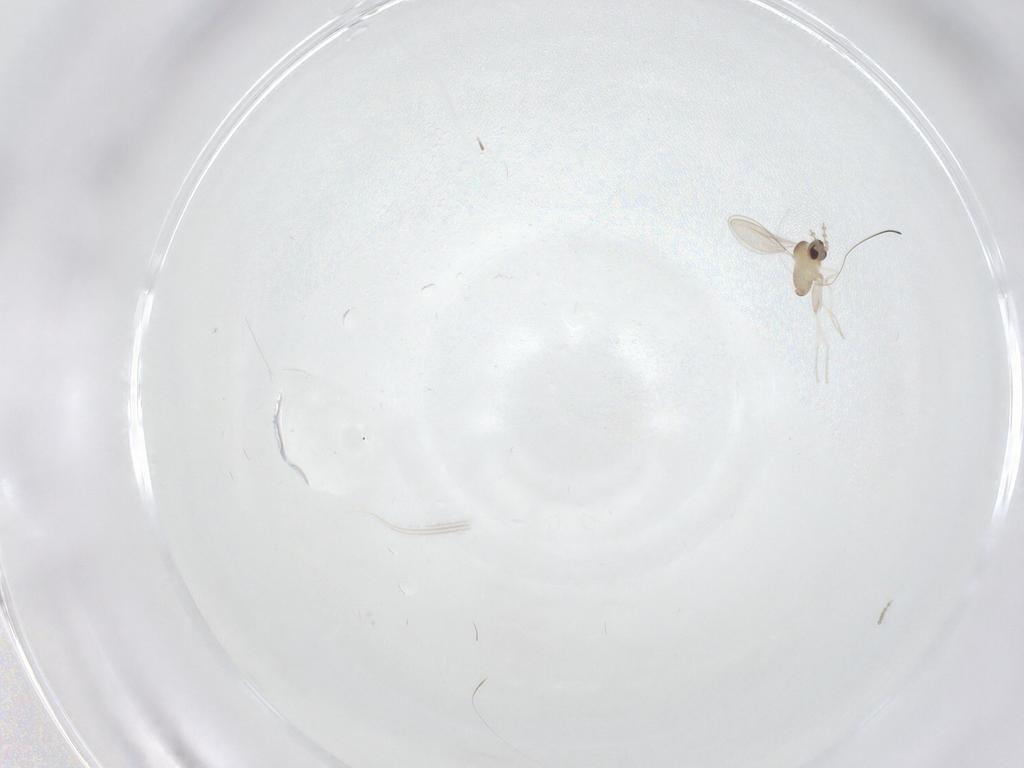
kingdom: Animalia
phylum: Arthropoda
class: Insecta
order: Diptera
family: Cecidomyiidae
